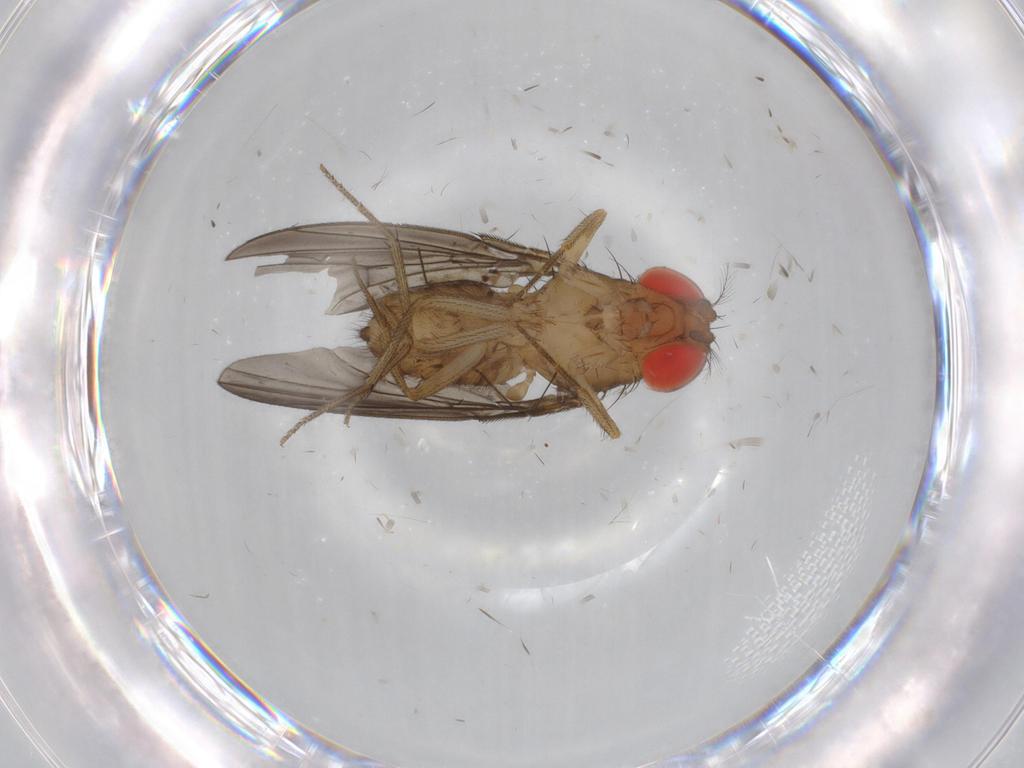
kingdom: Animalia
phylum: Arthropoda
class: Insecta
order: Diptera
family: Drosophilidae
